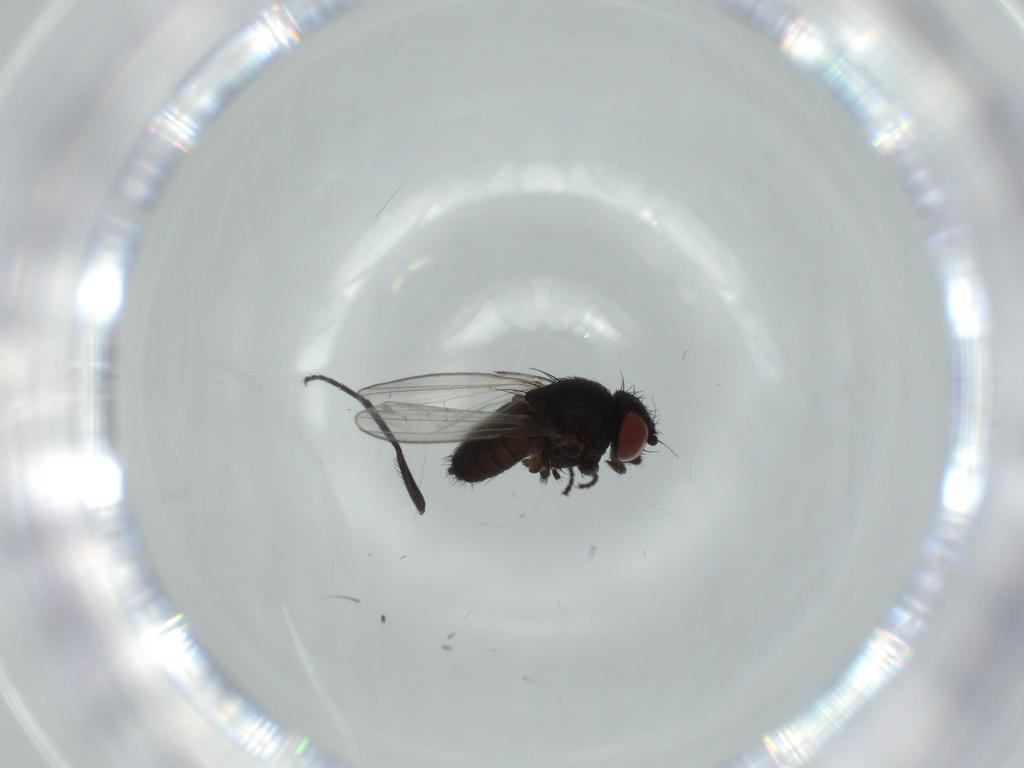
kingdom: Animalia
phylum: Arthropoda
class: Insecta
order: Diptera
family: Milichiidae
